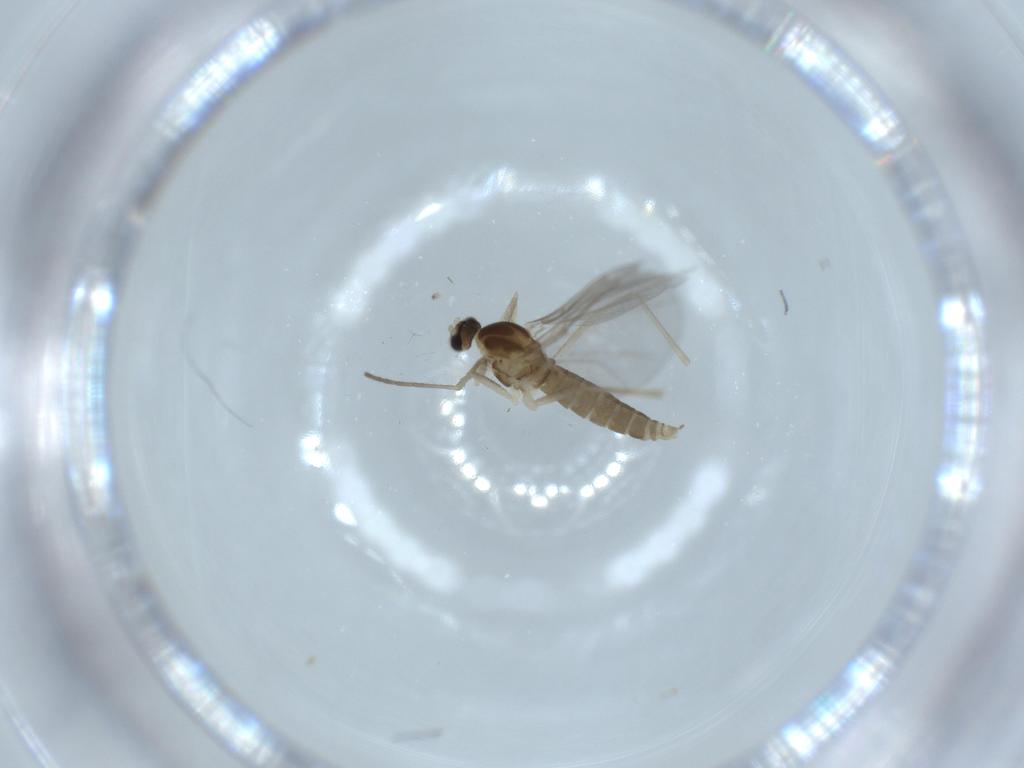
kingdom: Animalia
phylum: Arthropoda
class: Insecta
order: Diptera
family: Cecidomyiidae
